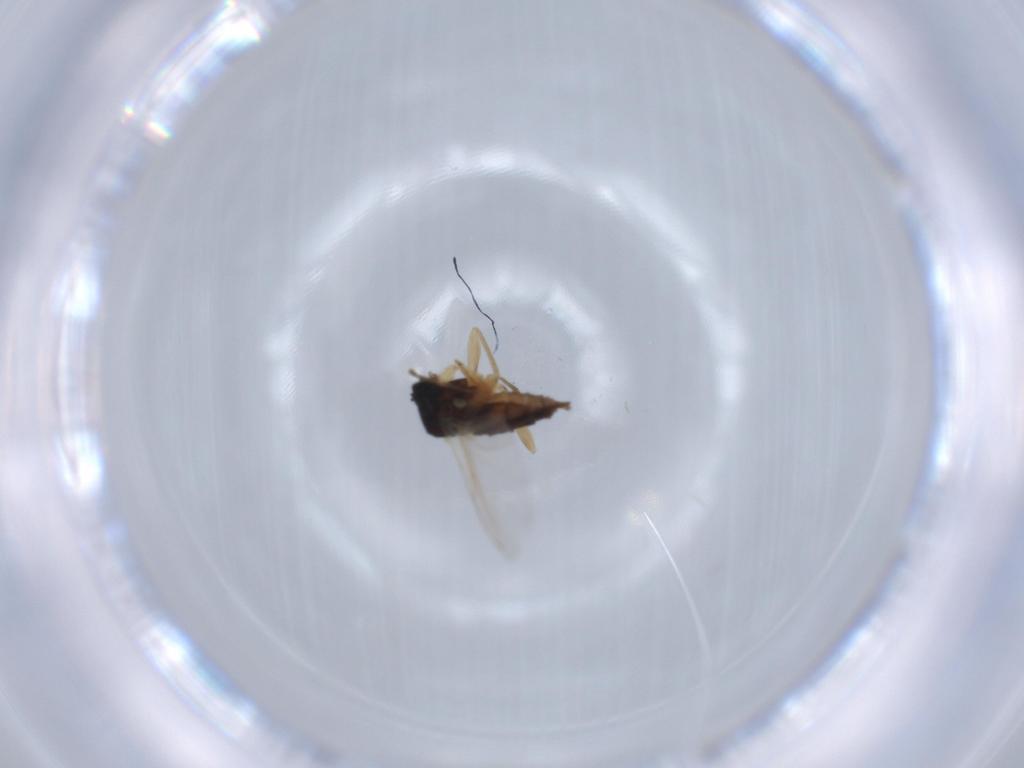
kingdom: Animalia
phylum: Arthropoda
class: Insecta
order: Diptera
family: Sciaridae
